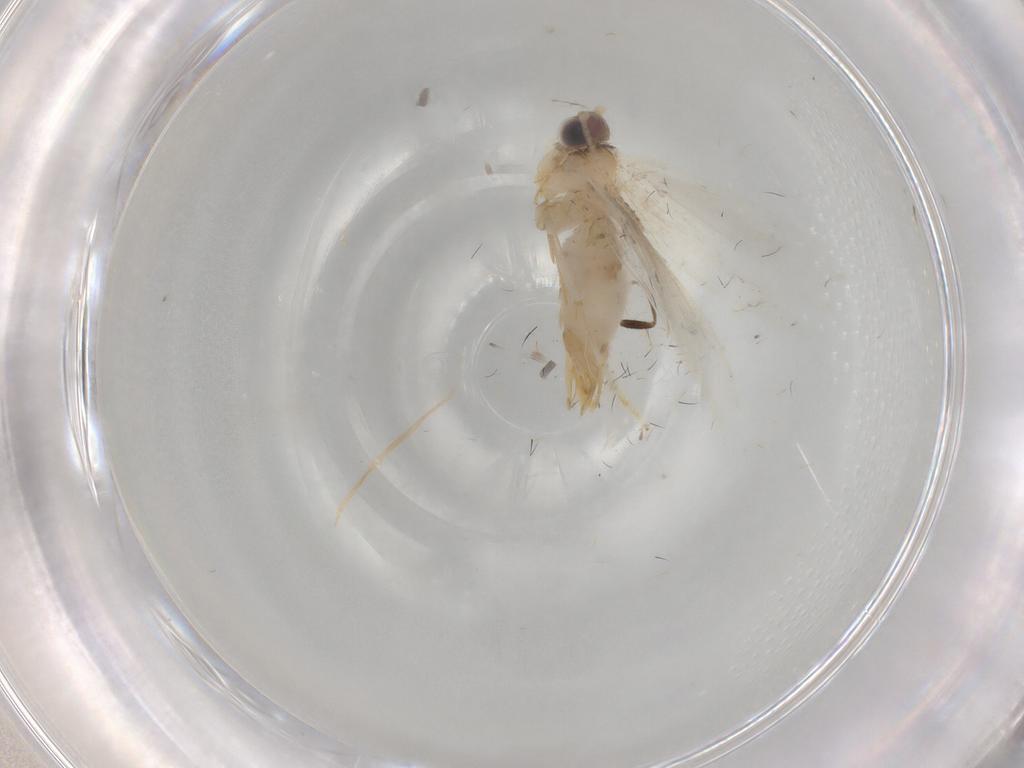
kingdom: Animalia
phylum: Arthropoda
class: Insecta
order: Lepidoptera
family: Tineidae
